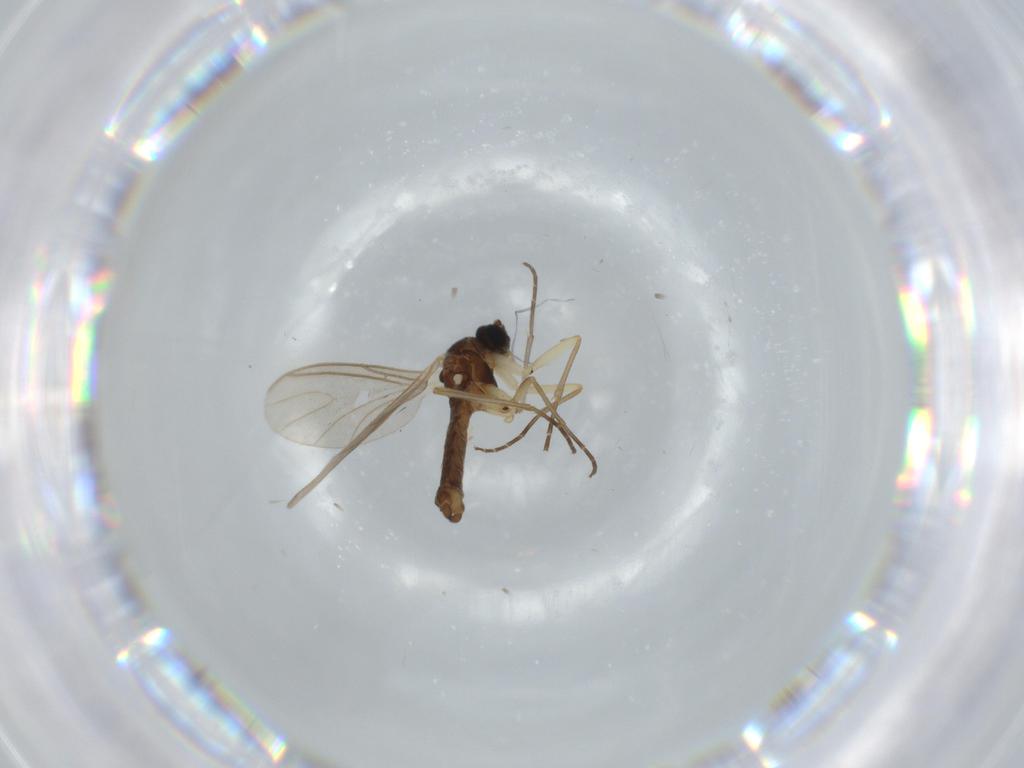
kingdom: Animalia
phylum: Arthropoda
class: Insecta
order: Diptera
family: Sciaridae
